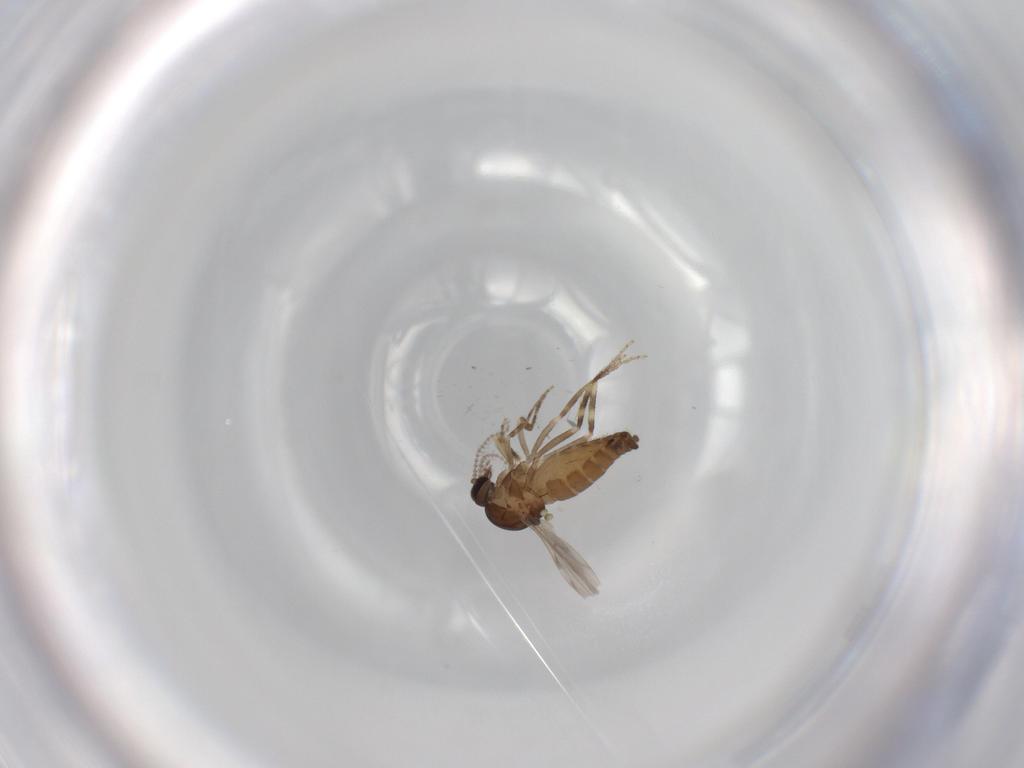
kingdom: Animalia
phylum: Arthropoda
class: Insecta
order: Diptera
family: Ceratopogonidae
